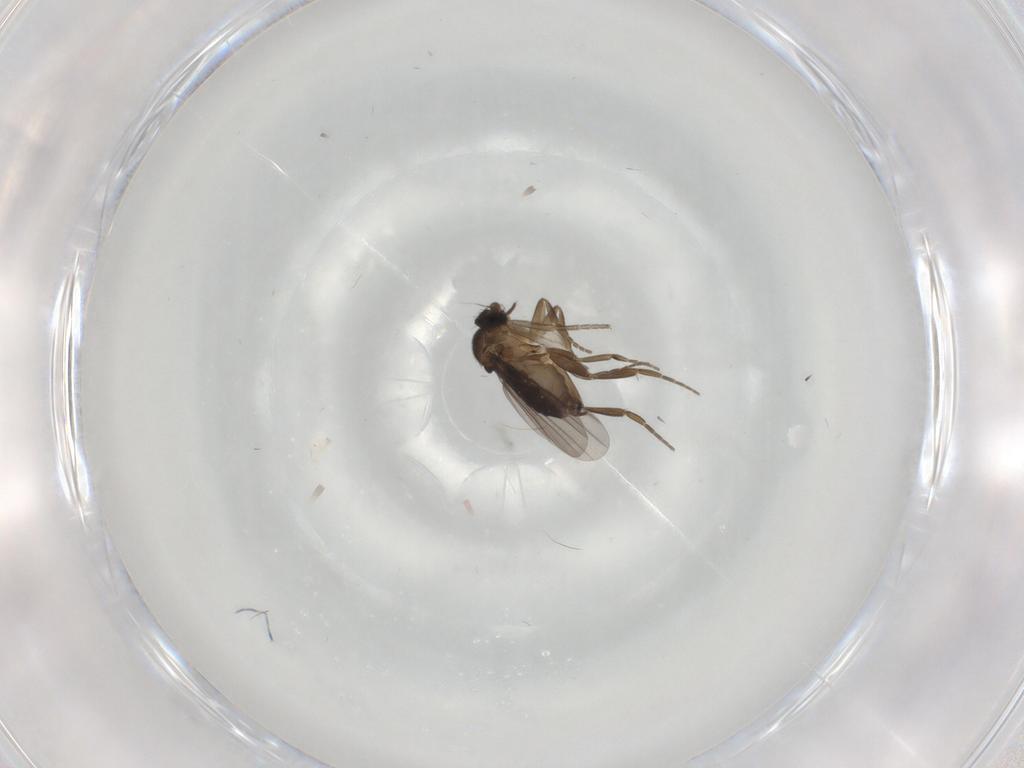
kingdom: Animalia
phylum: Arthropoda
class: Insecta
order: Diptera
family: Phoridae
